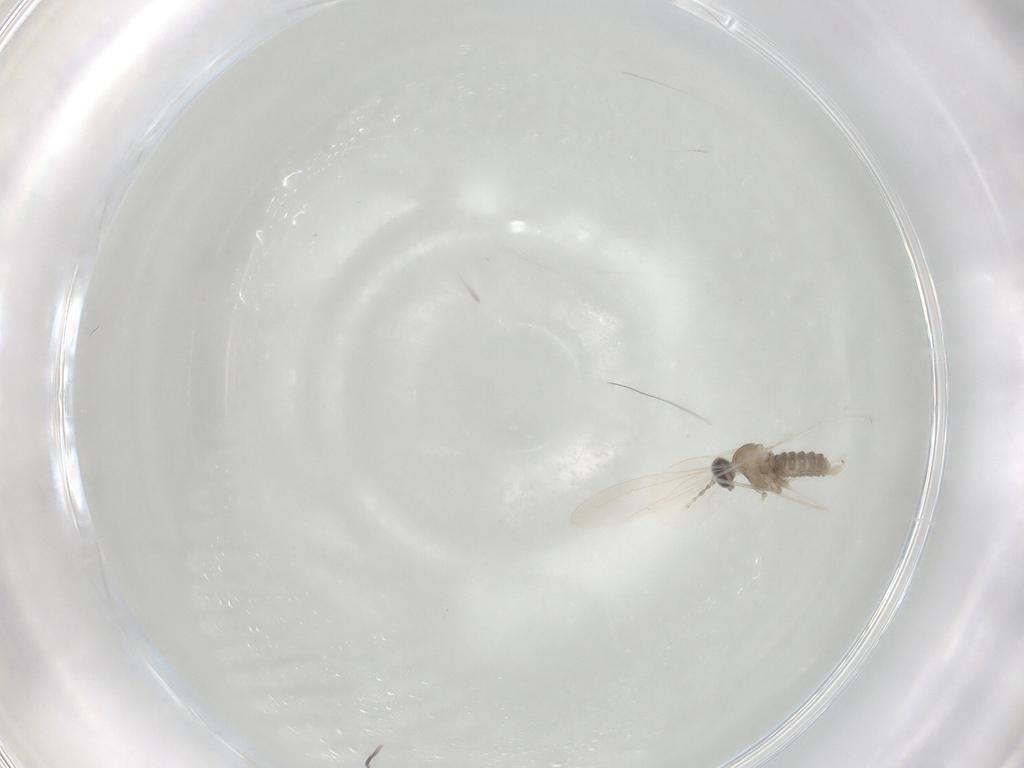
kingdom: Animalia
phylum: Arthropoda
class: Insecta
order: Diptera
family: Cecidomyiidae
